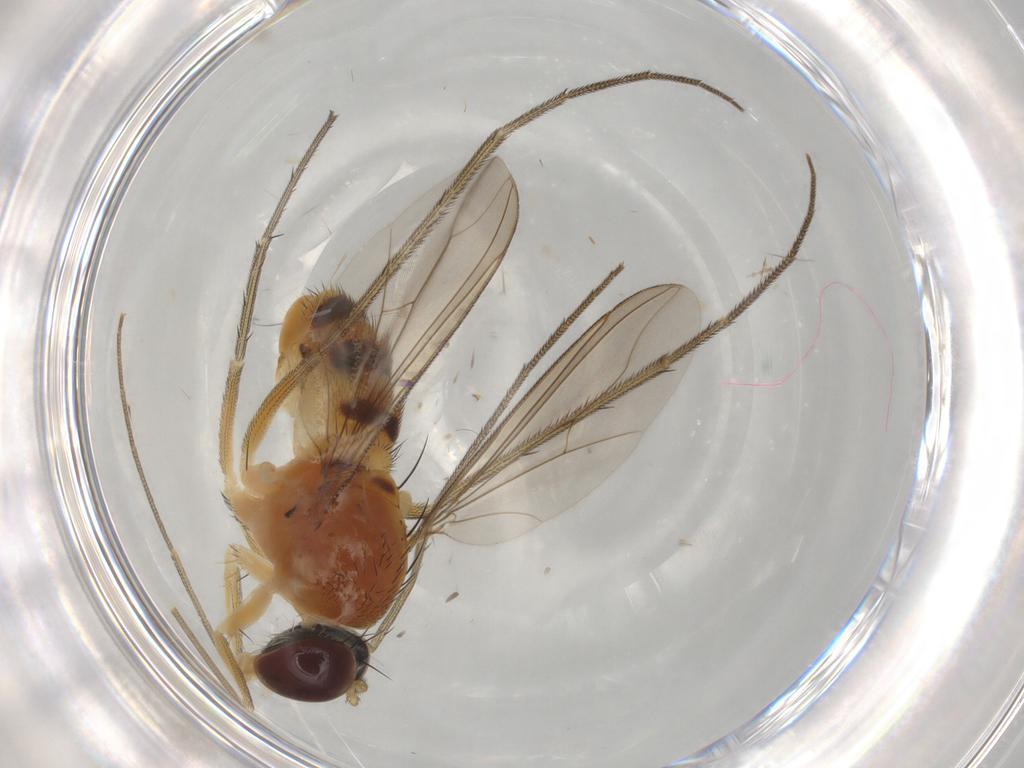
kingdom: Animalia
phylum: Arthropoda
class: Insecta
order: Diptera
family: Dolichopodidae
